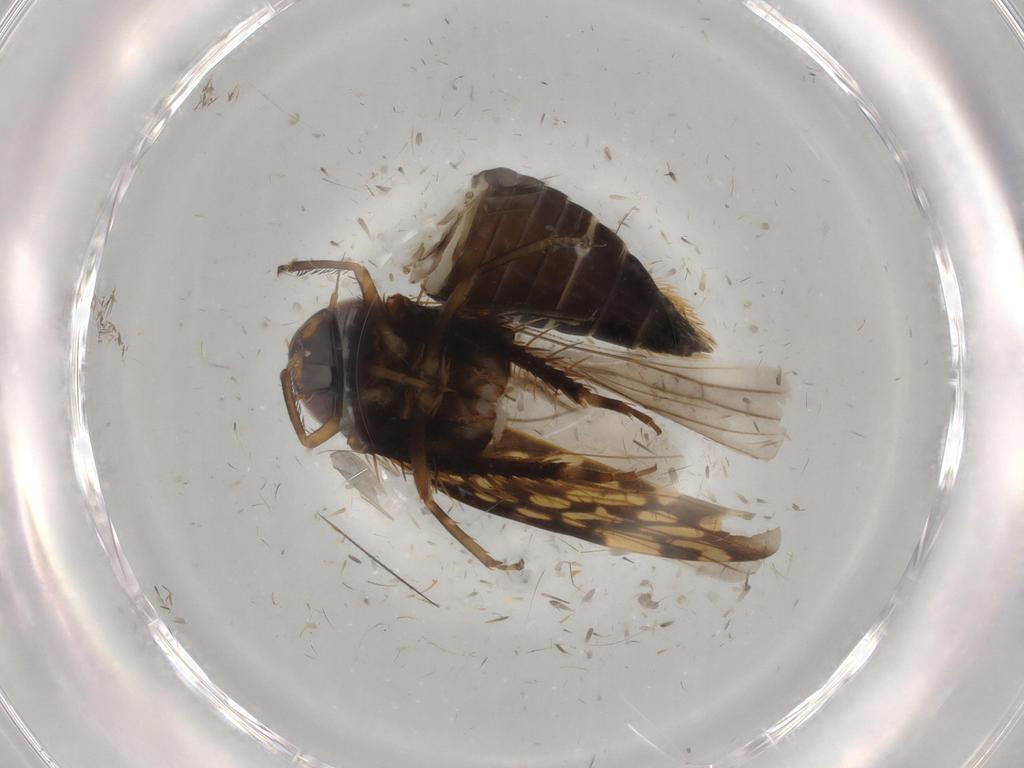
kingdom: Animalia
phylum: Arthropoda
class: Insecta
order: Hemiptera
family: Cicadellidae
